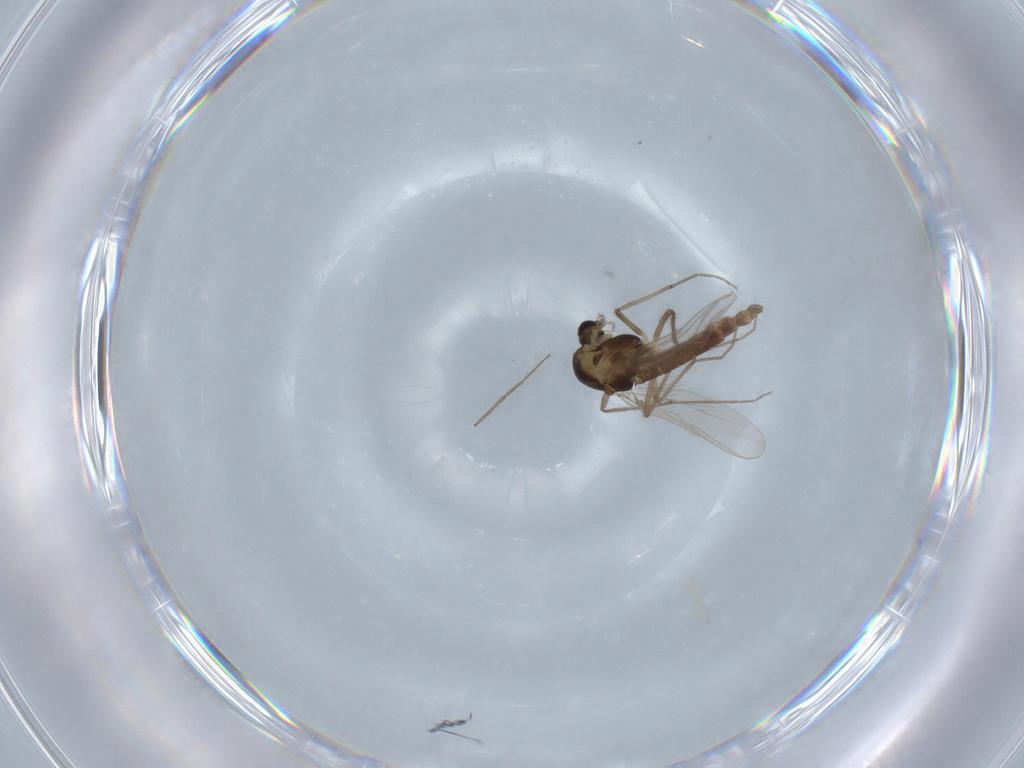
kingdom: Animalia
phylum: Arthropoda
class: Insecta
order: Diptera
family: Chironomidae
